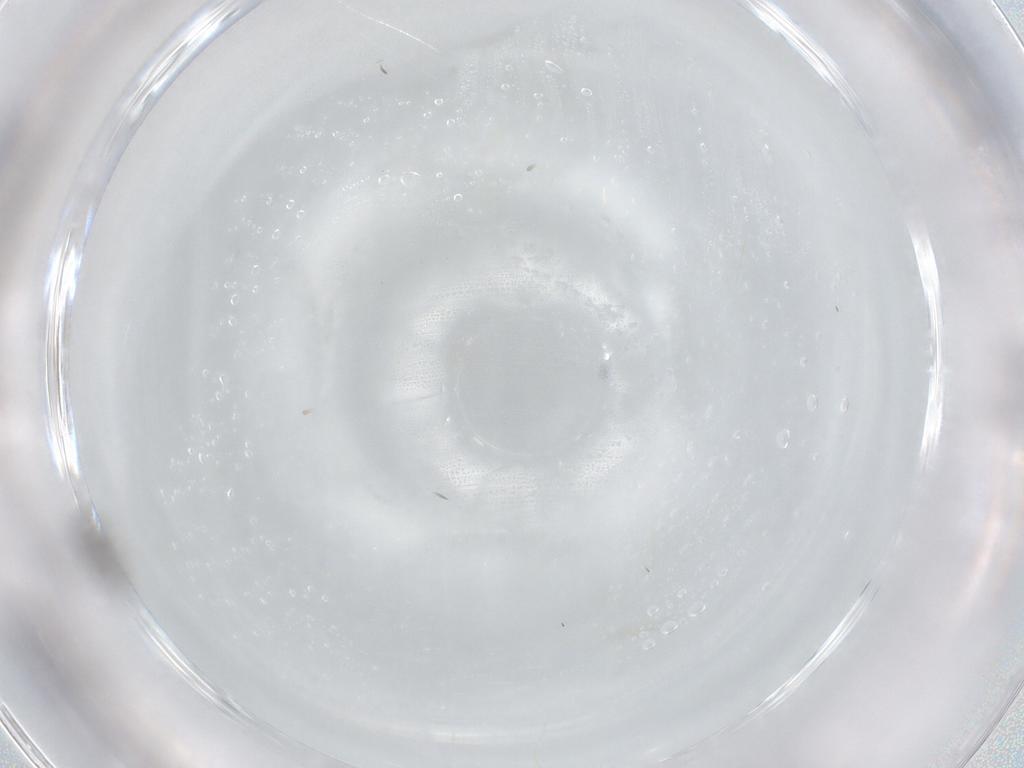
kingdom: Animalia
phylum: Arthropoda
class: Insecta
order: Diptera
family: Sciaridae
